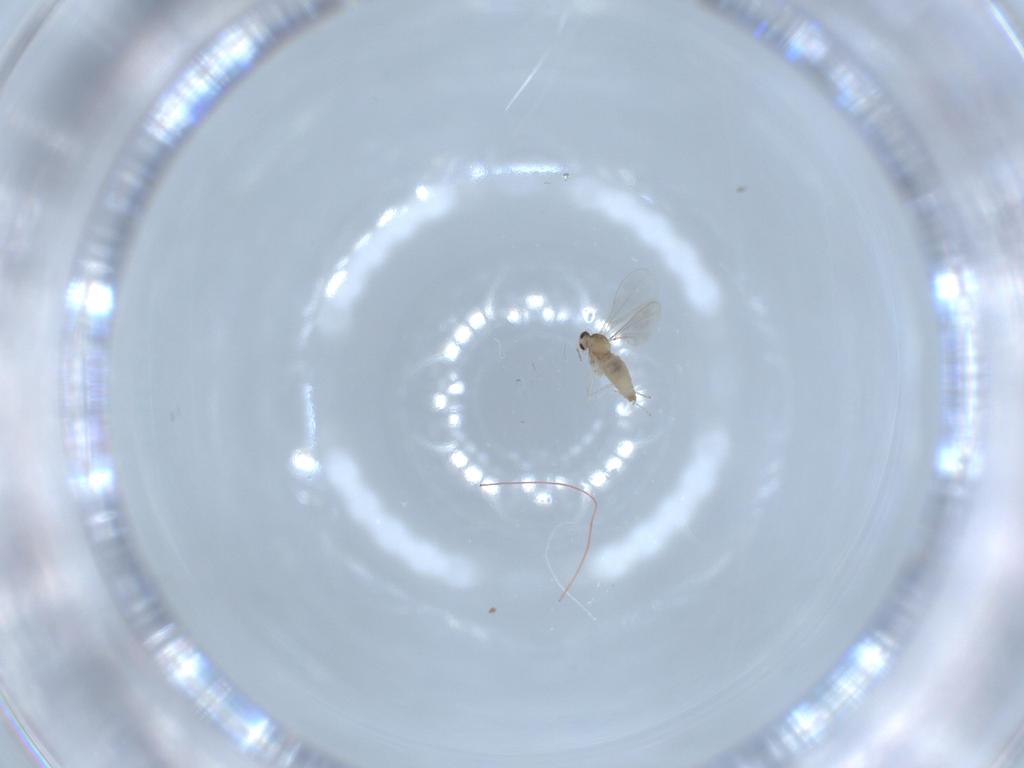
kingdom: Animalia
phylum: Arthropoda
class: Insecta
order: Diptera
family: Cecidomyiidae
